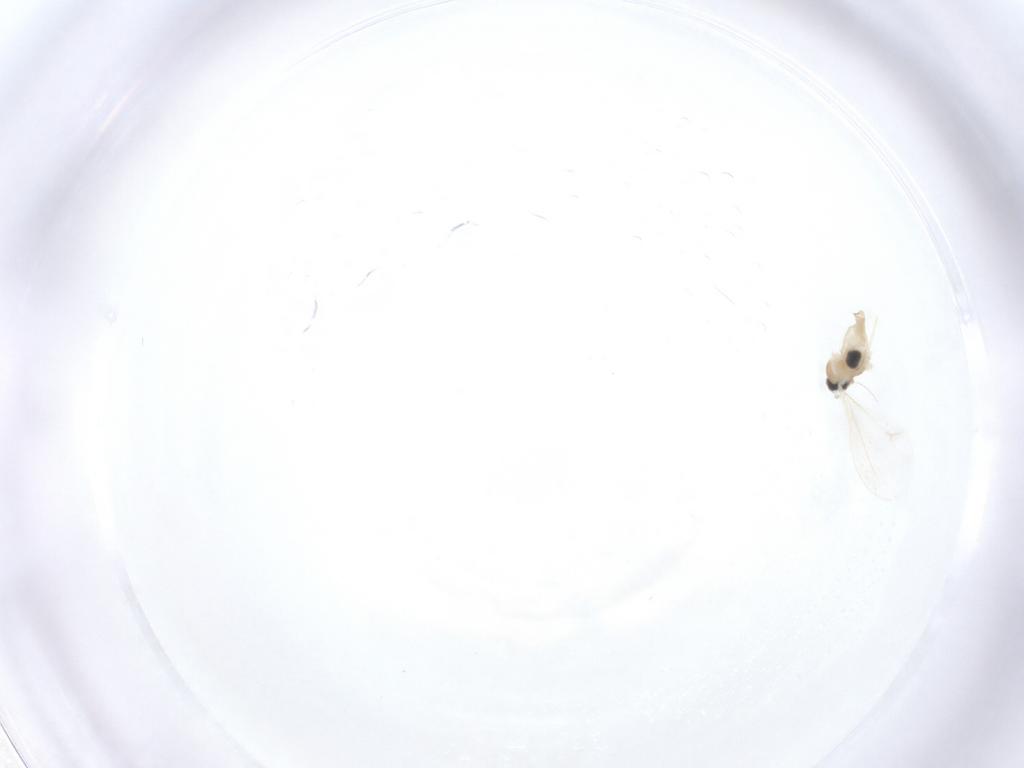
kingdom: Animalia
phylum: Arthropoda
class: Insecta
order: Diptera
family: Cecidomyiidae
